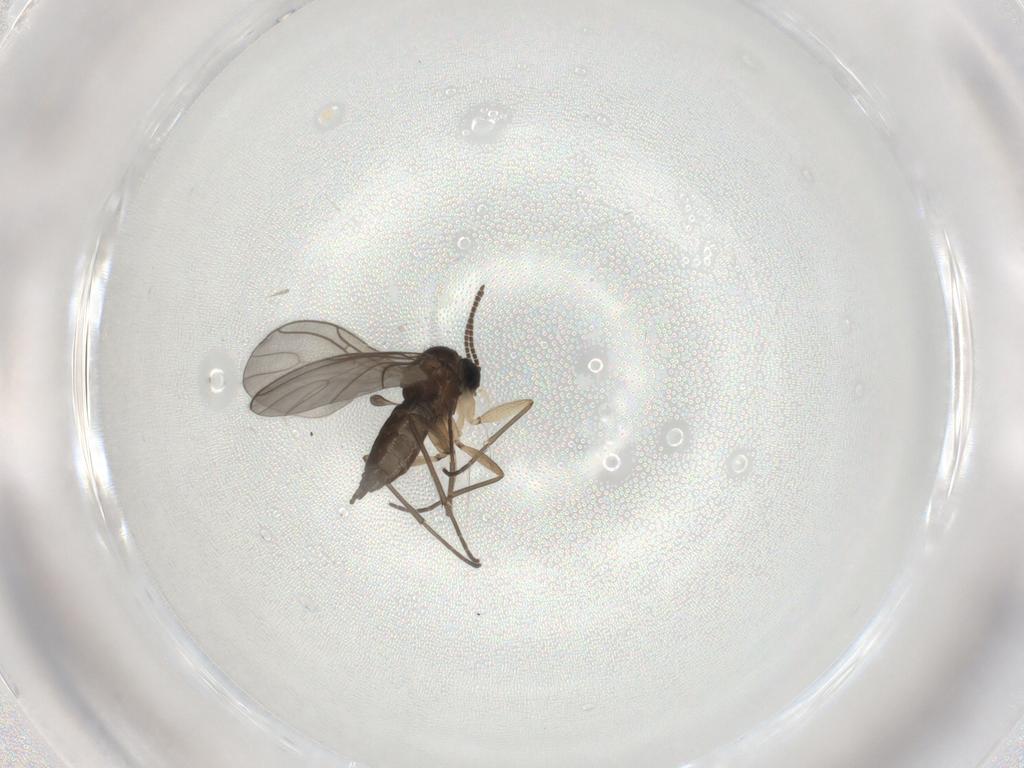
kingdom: Animalia
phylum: Arthropoda
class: Insecta
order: Diptera
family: Sciaridae
